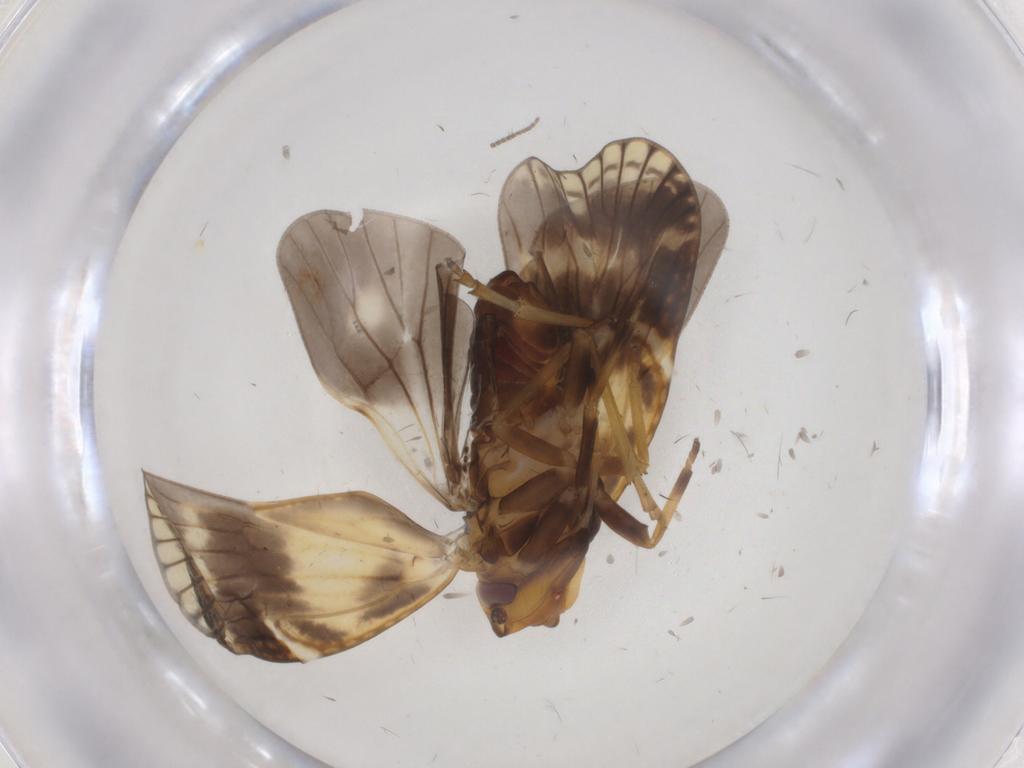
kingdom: Animalia
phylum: Arthropoda
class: Insecta
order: Hemiptera
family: Cixiidae
